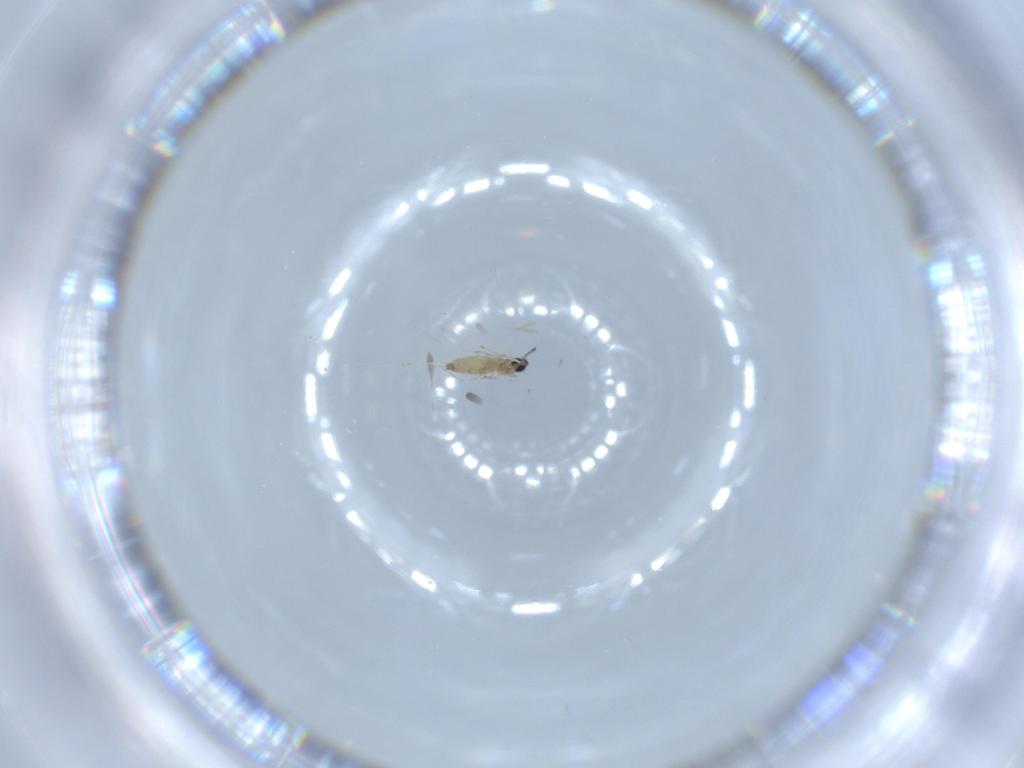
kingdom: Animalia
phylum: Arthropoda
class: Insecta
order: Diptera
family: Cecidomyiidae
